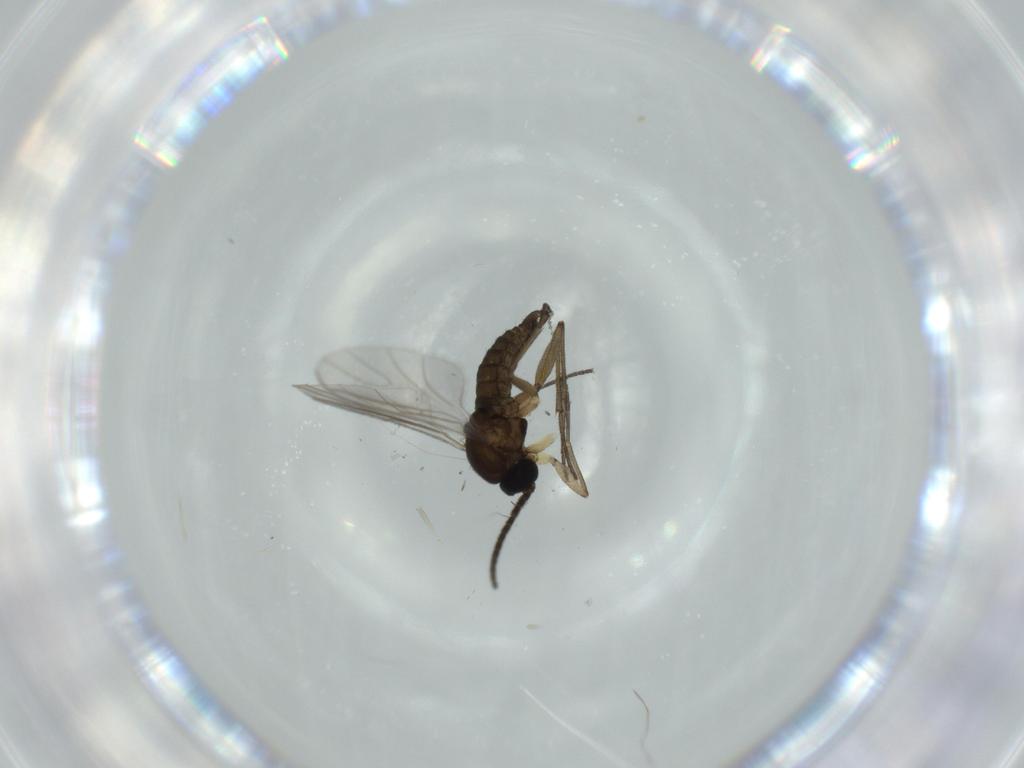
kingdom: Animalia
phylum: Arthropoda
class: Insecta
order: Diptera
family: Sciaridae
